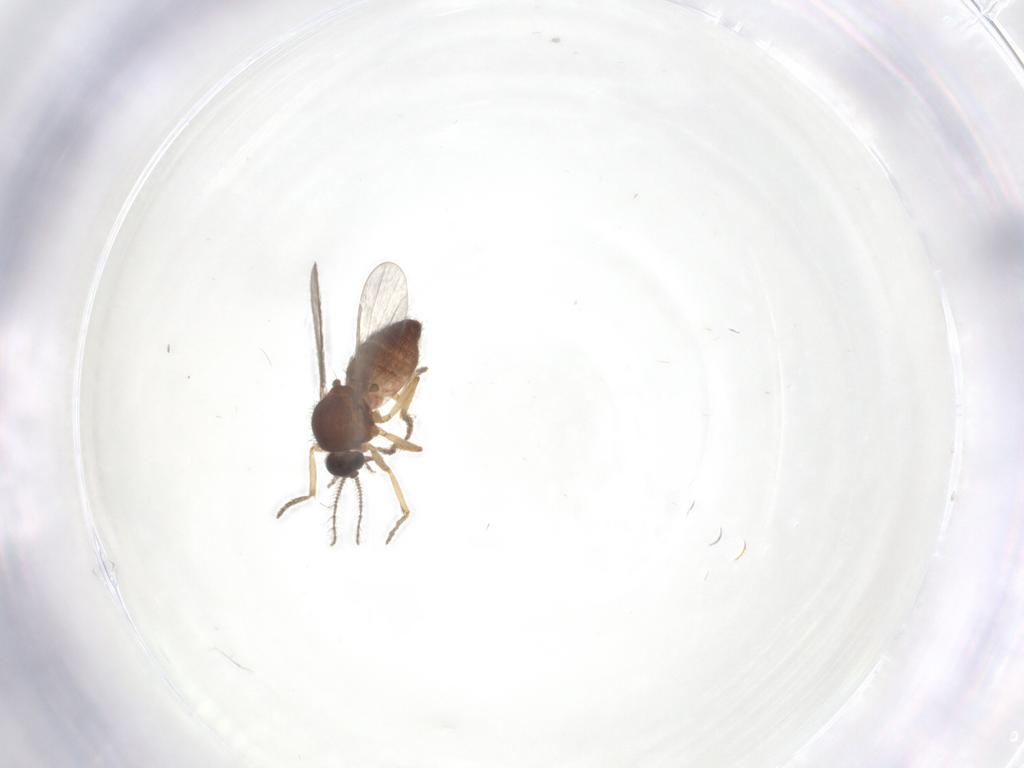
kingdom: Animalia
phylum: Arthropoda
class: Insecta
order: Diptera
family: Ceratopogonidae
